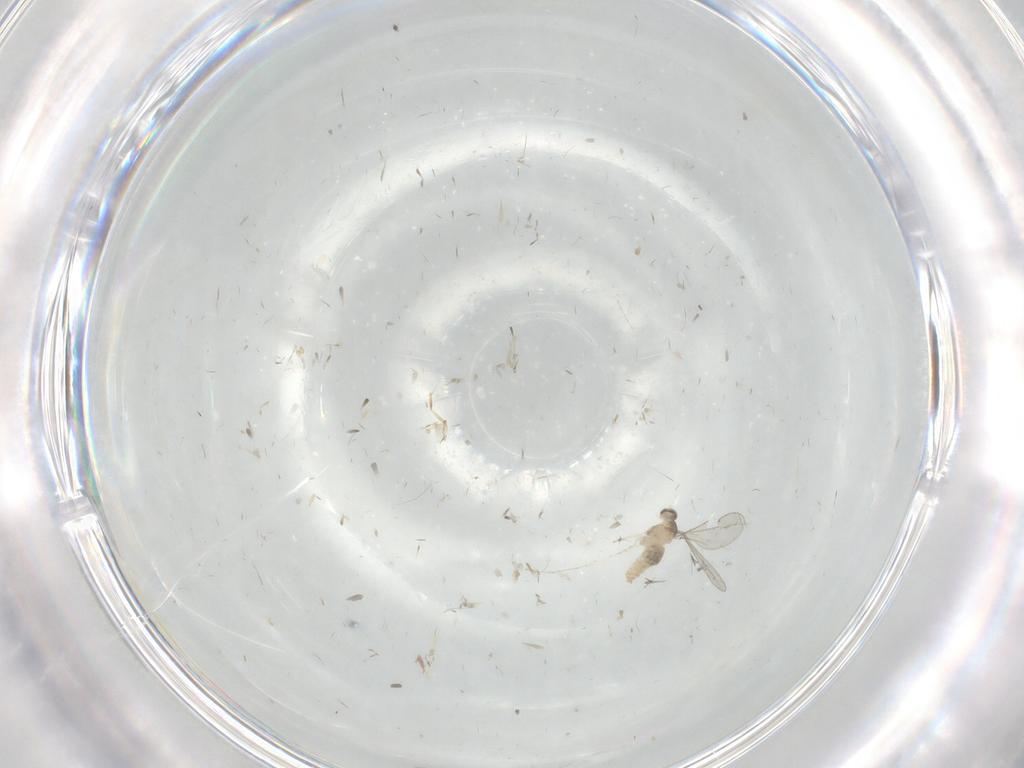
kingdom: Animalia
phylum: Arthropoda
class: Insecta
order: Diptera
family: Cecidomyiidae
